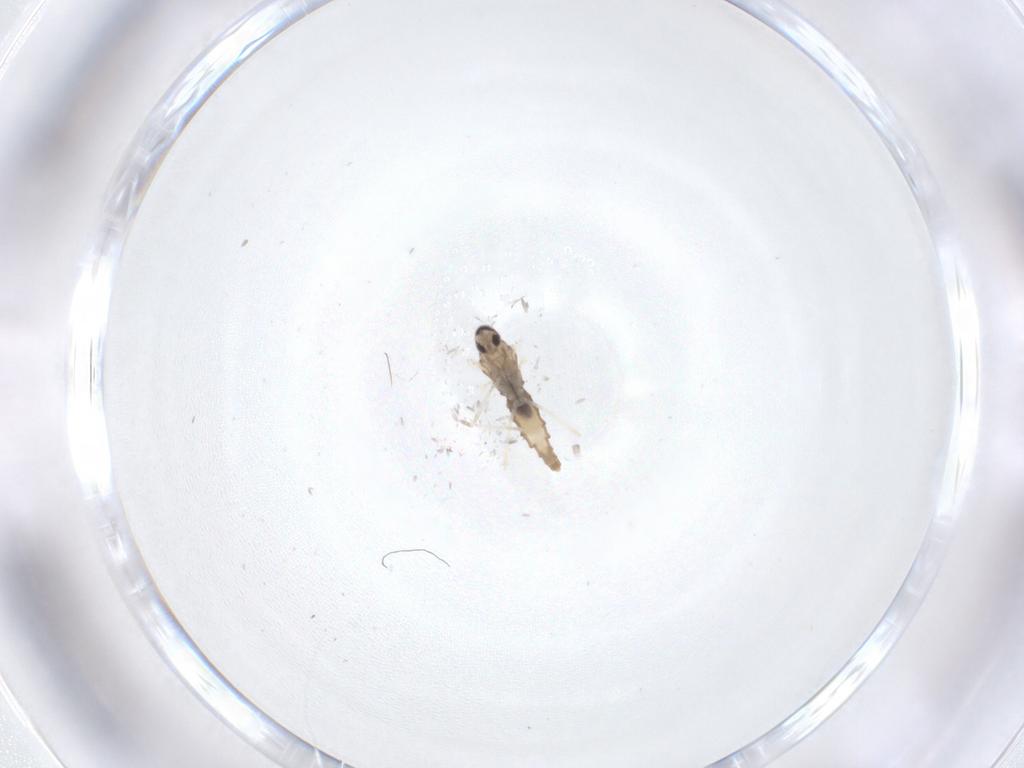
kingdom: Animalia
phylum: Arthropoda
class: Insecta
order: Diptera
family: Cecidomyiidae
